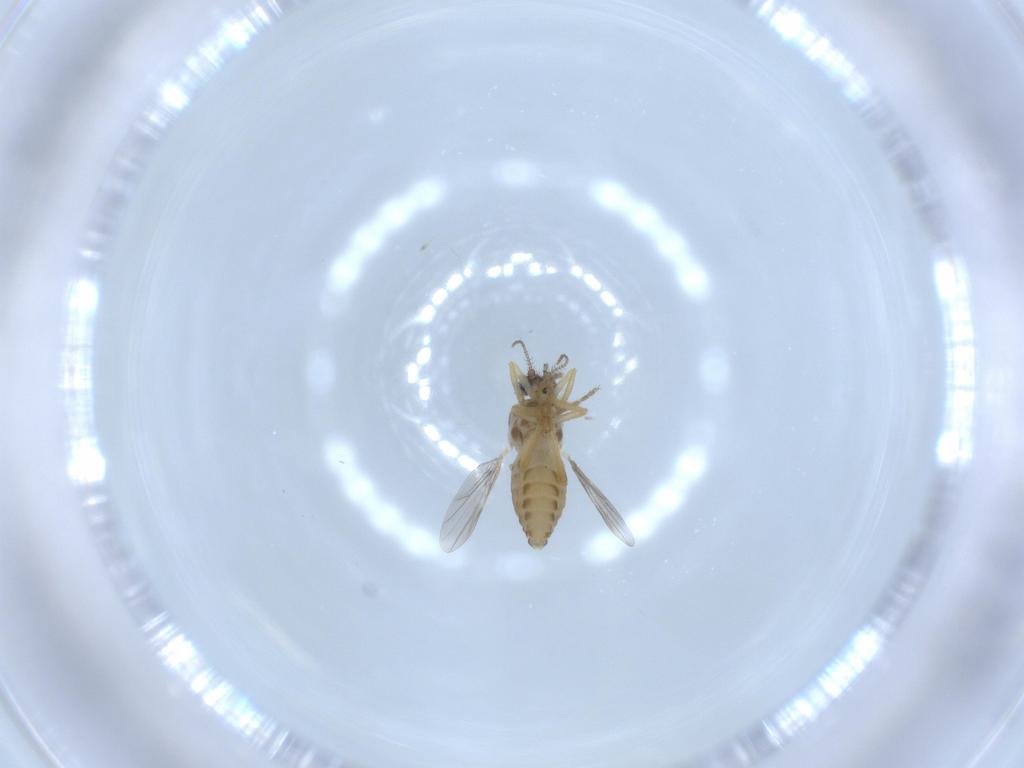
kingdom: Animalia
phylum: Arthropoda
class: Insecta
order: Diptera
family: Ceratopogonidae
